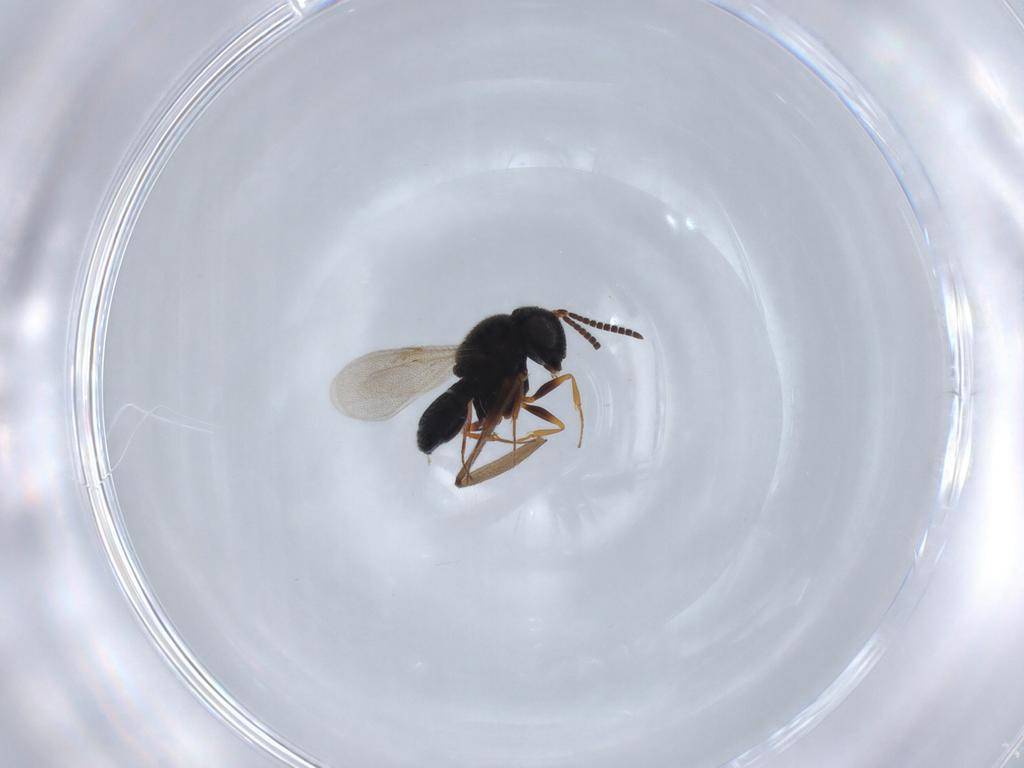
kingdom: Animalia
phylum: Arthropoda
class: Insecta
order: Hymenoptera
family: Scelionidae
